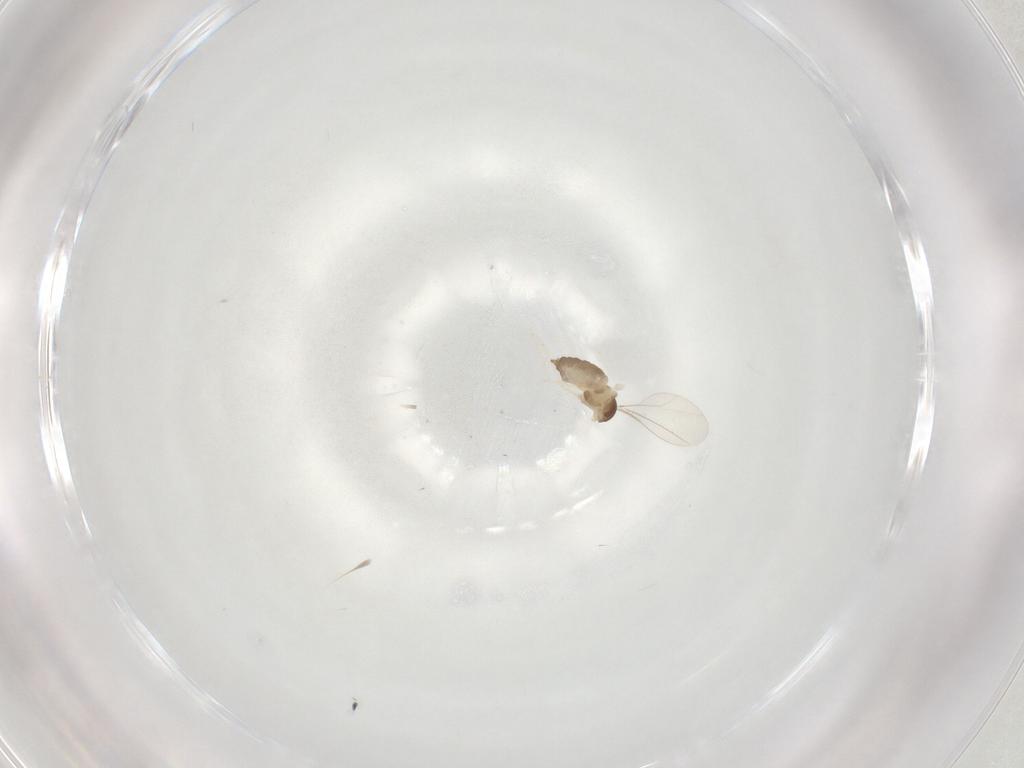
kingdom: Animalia
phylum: Arthropoda
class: Insecta
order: Diptera
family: Cecidomyiidae
